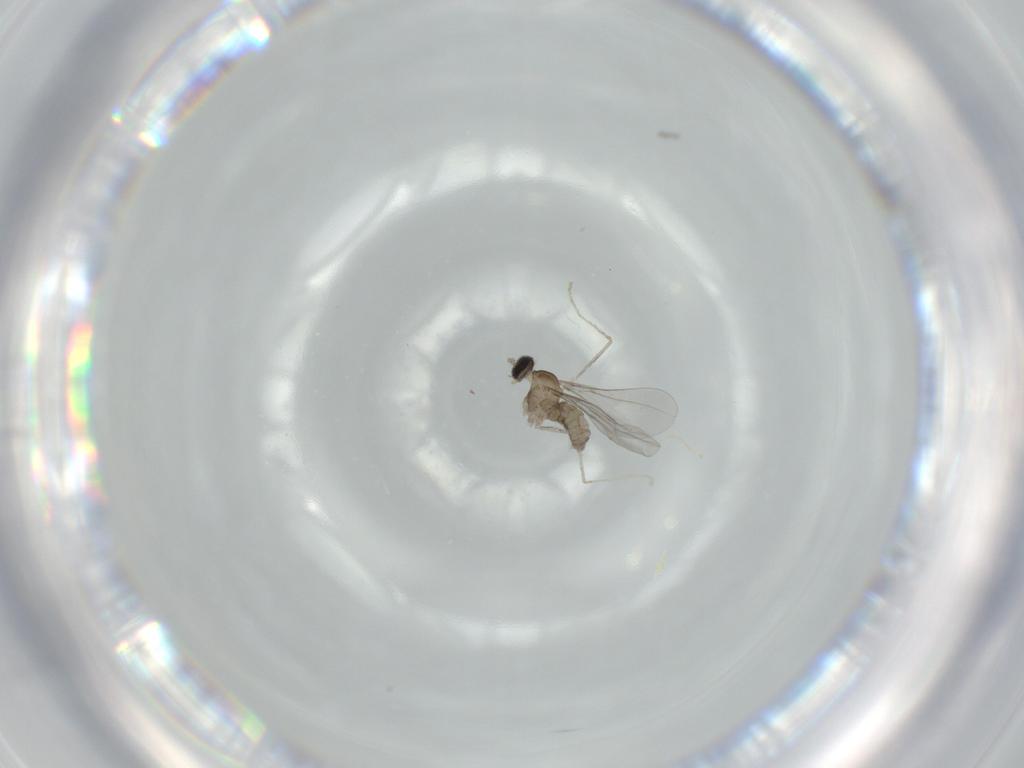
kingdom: Animalia
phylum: Arthropoda
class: Insecta
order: Diptera
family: Cecidomyiidae
